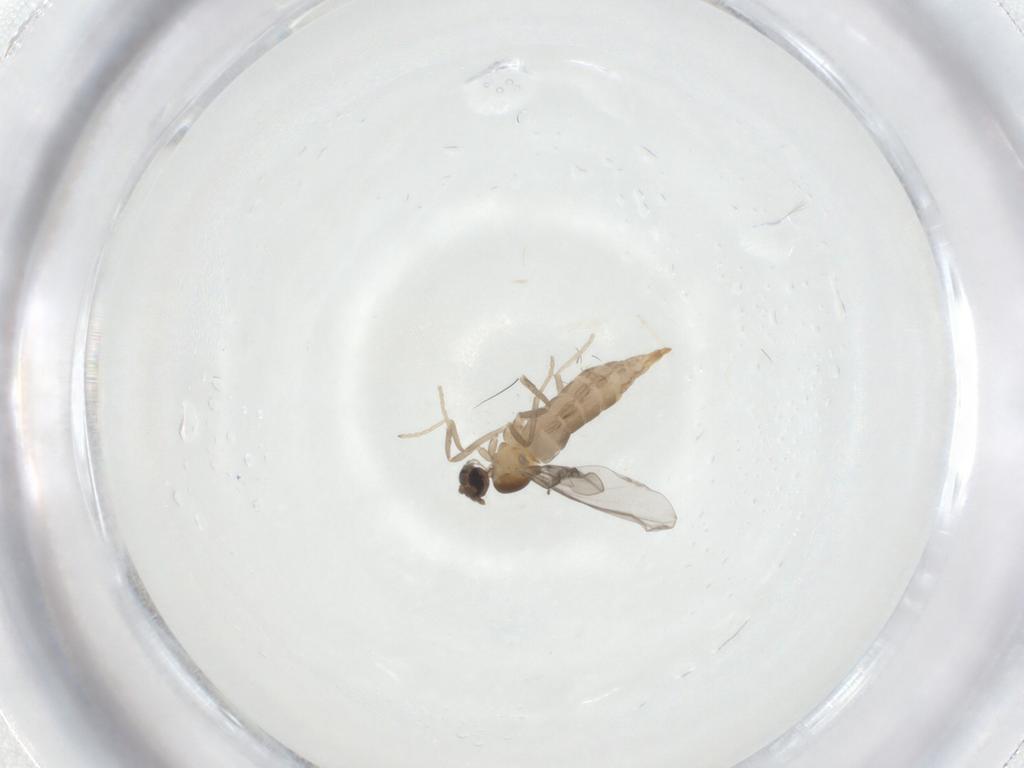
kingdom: Animalia
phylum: Arthropoda
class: Insecta
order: Diptera
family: Cecidomyiidae
